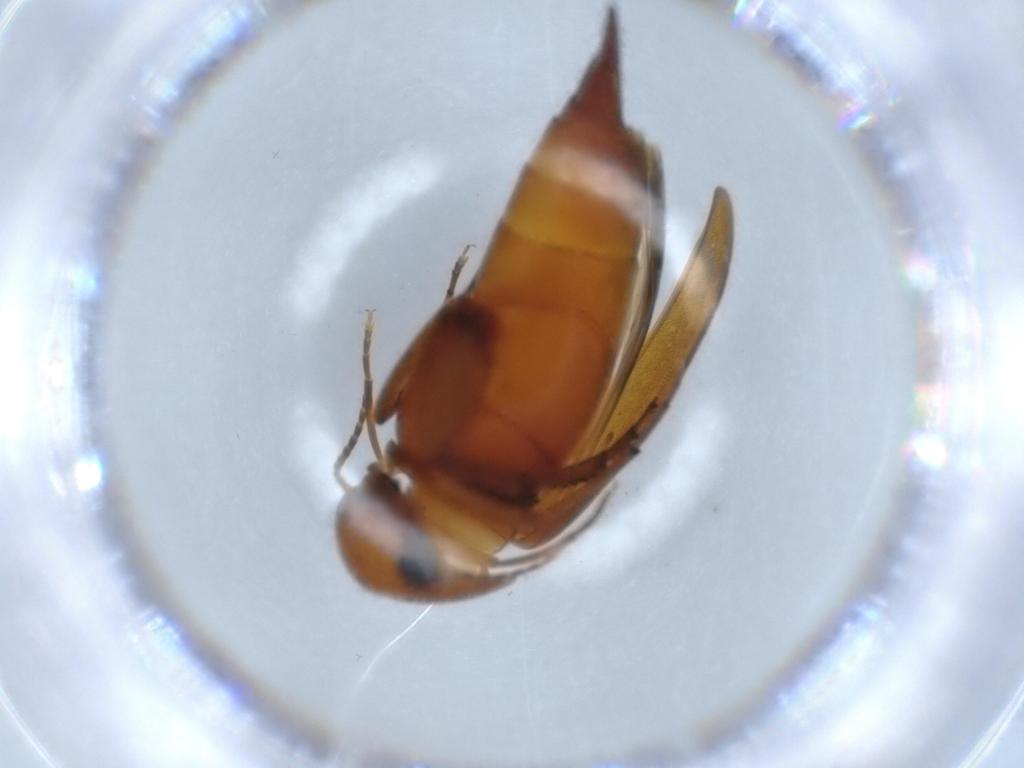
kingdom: Animalia
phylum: Arthropoda
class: Insecta
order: Coleoptera
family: Mordellidae
